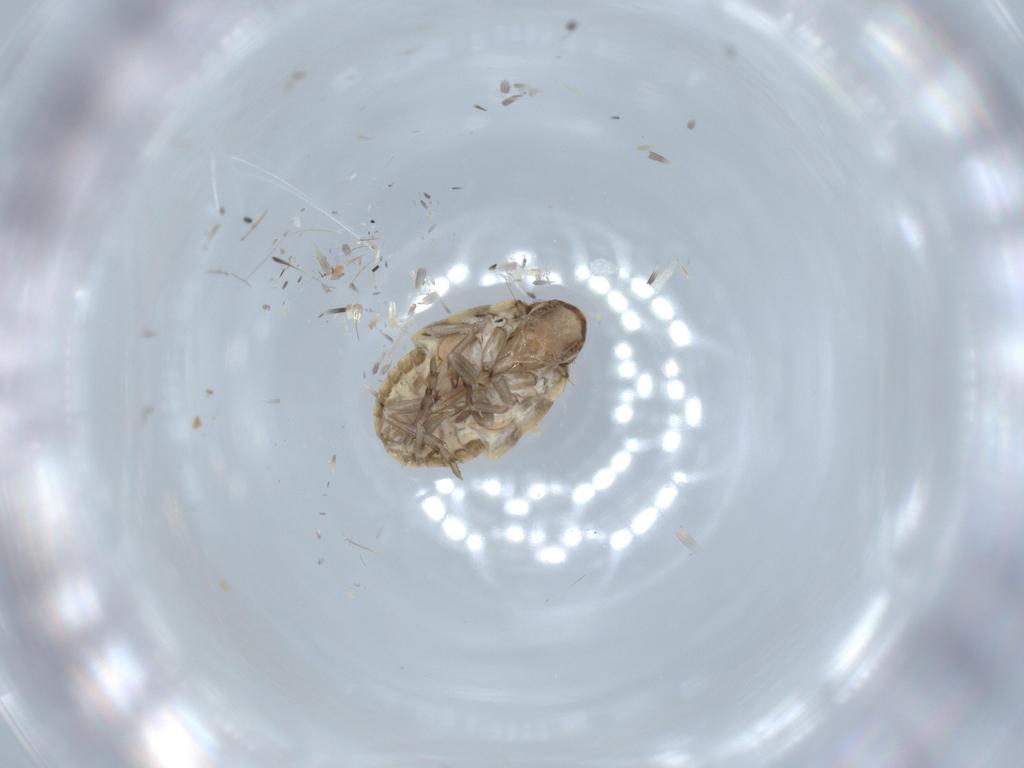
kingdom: Animalia
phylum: Arthropoda
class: Insecta
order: Hemiptera
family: Flatidae
